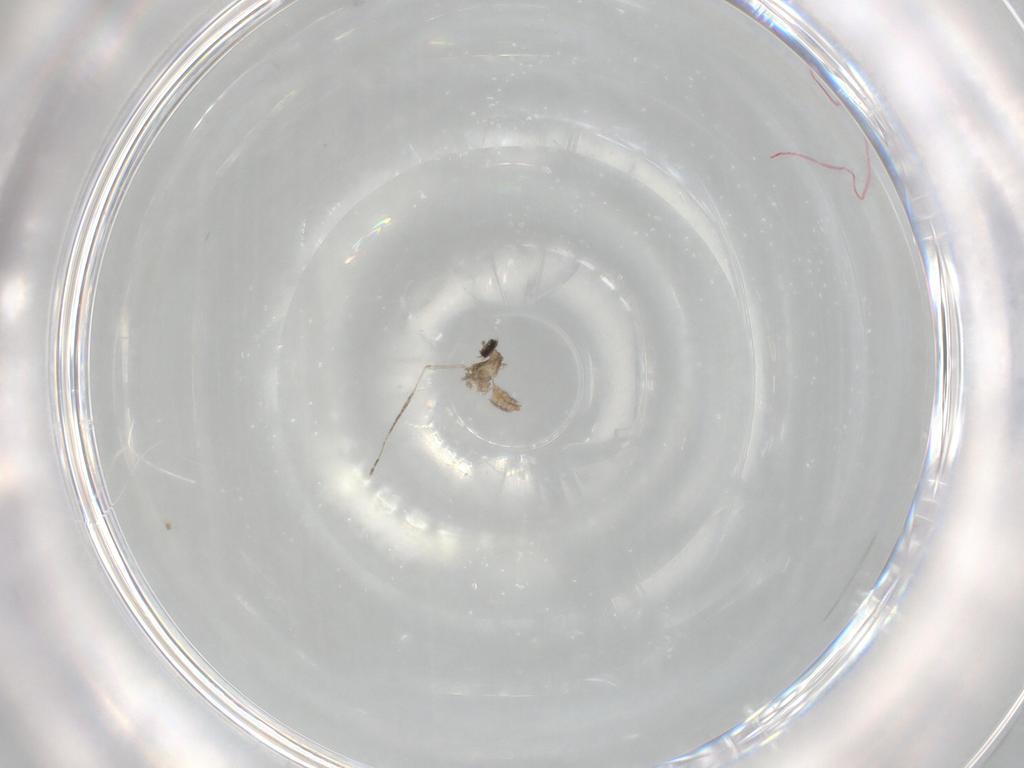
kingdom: Animalia
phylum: Arthropoda
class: Insecta
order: Diptera
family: Cecidomyiidae
